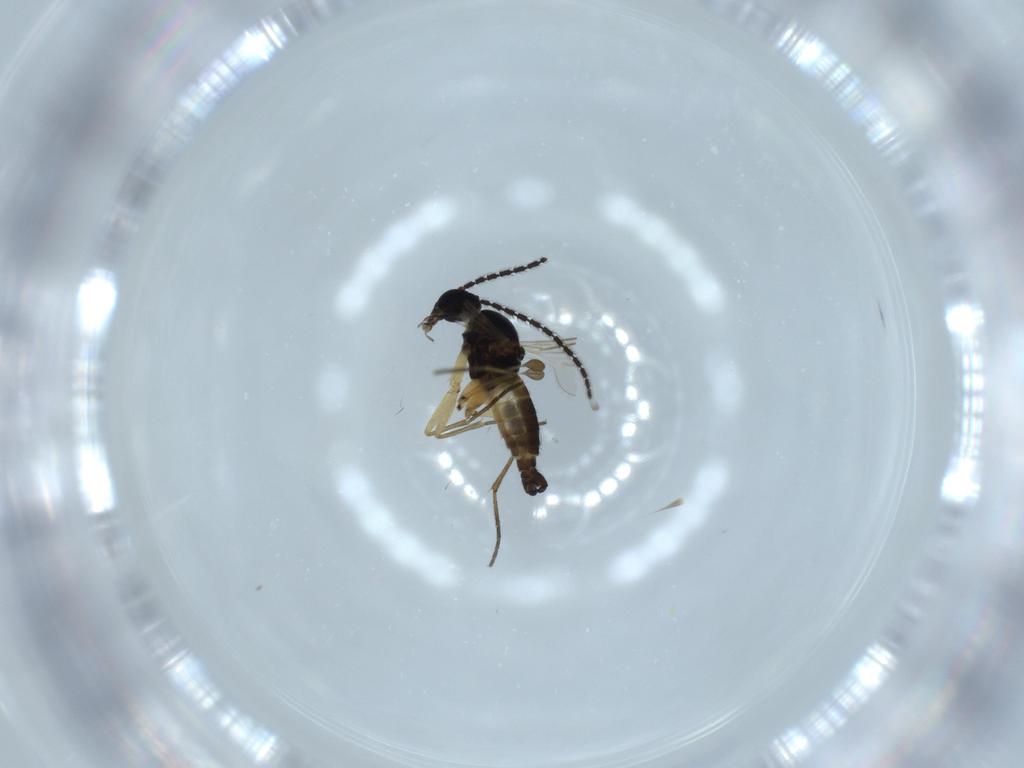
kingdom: Animalia
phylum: Arthropoda
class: Insecta
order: Diptera
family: Sciaridae
